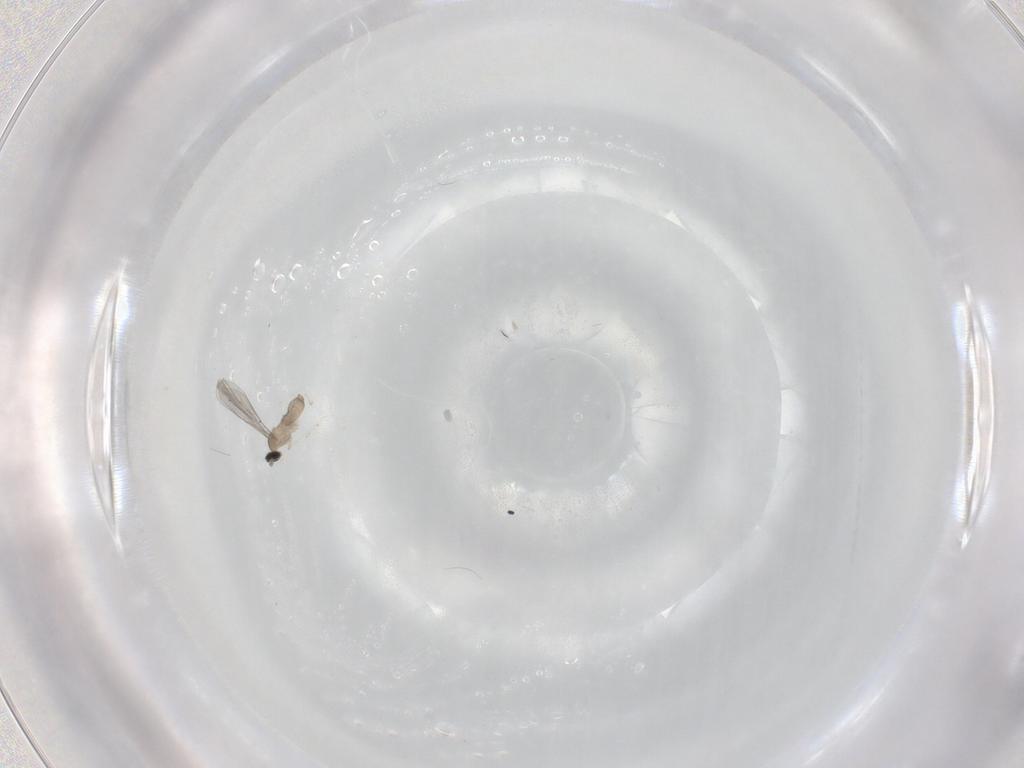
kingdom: Animalia
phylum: Arthropoda
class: Insecta
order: Diptera
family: Cecidomyiidae
